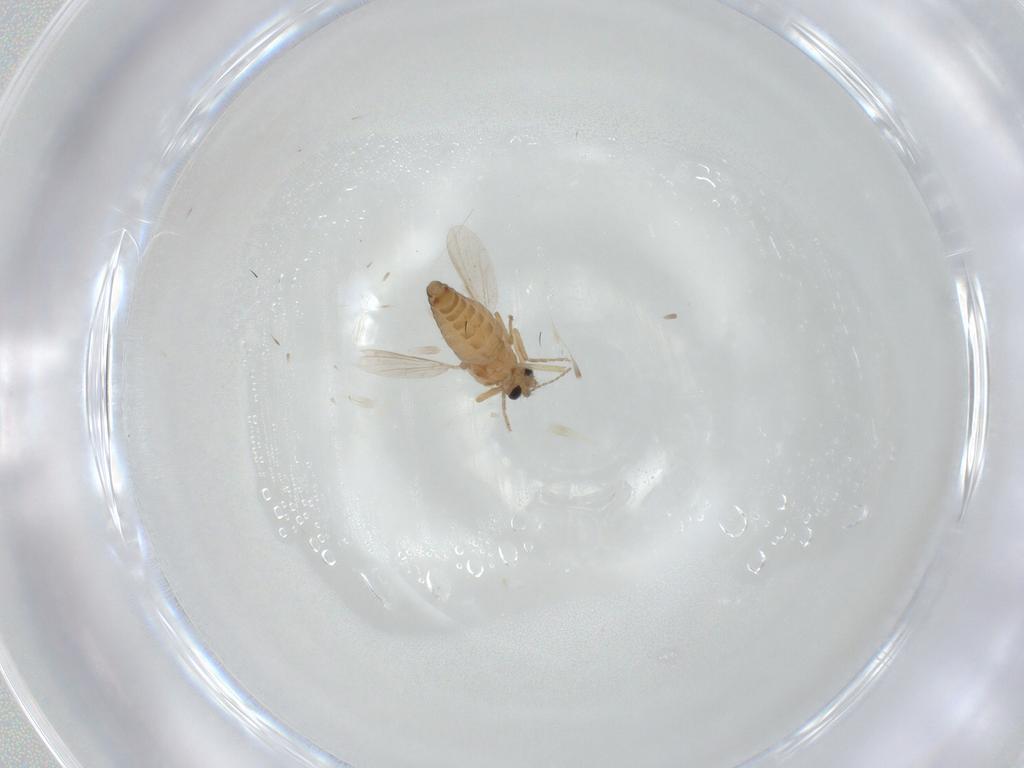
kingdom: Animalia
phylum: Arthropoda
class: Insecta
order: Diptera
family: Ceratopogonidae
